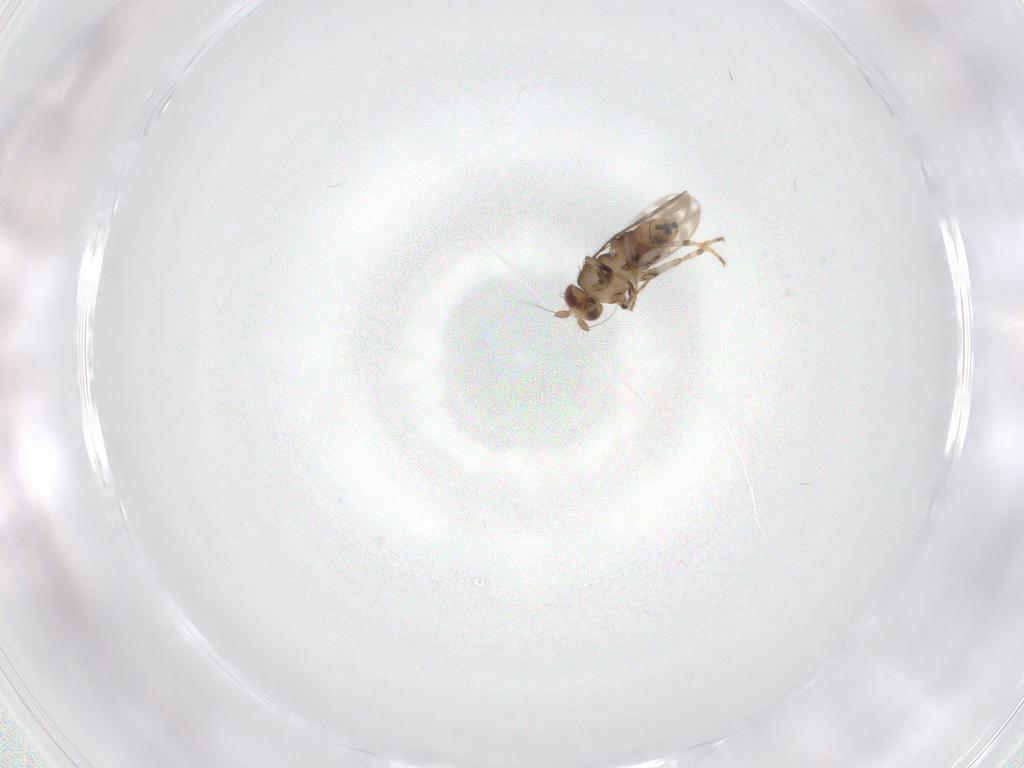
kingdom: Animalia
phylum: Arthropoda
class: Insecta
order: Diptera
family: Sphaeroceridae
